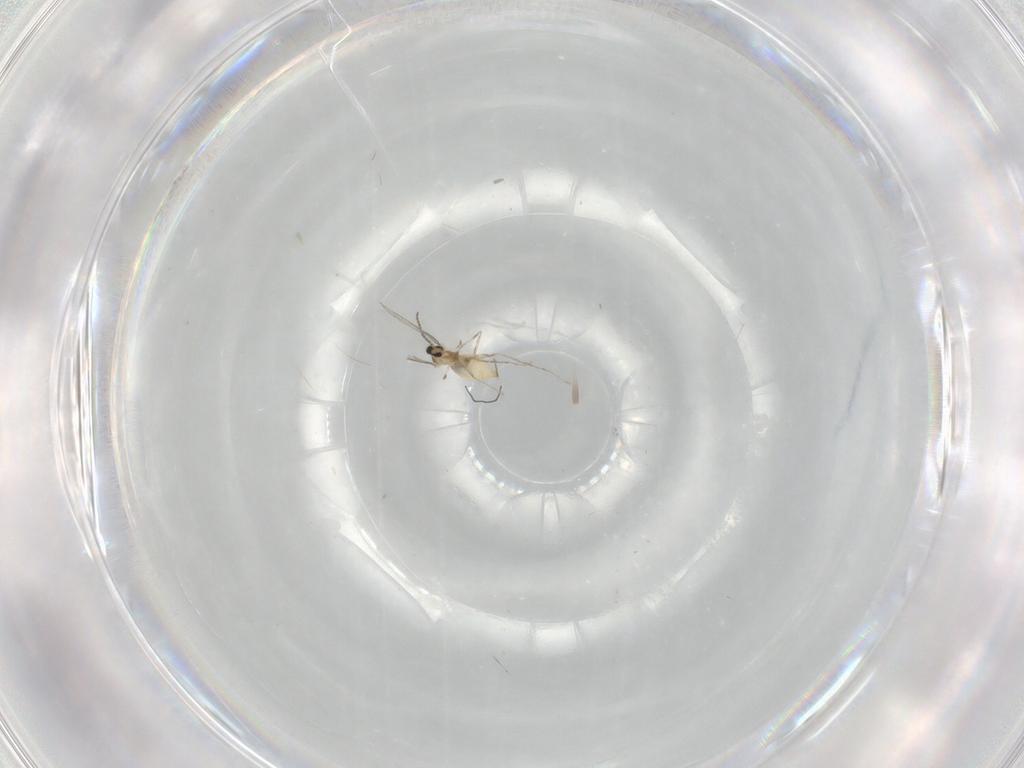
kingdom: Animalia
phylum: Arthropoda
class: Insecta
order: Diptera
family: Cecidomyiidae
